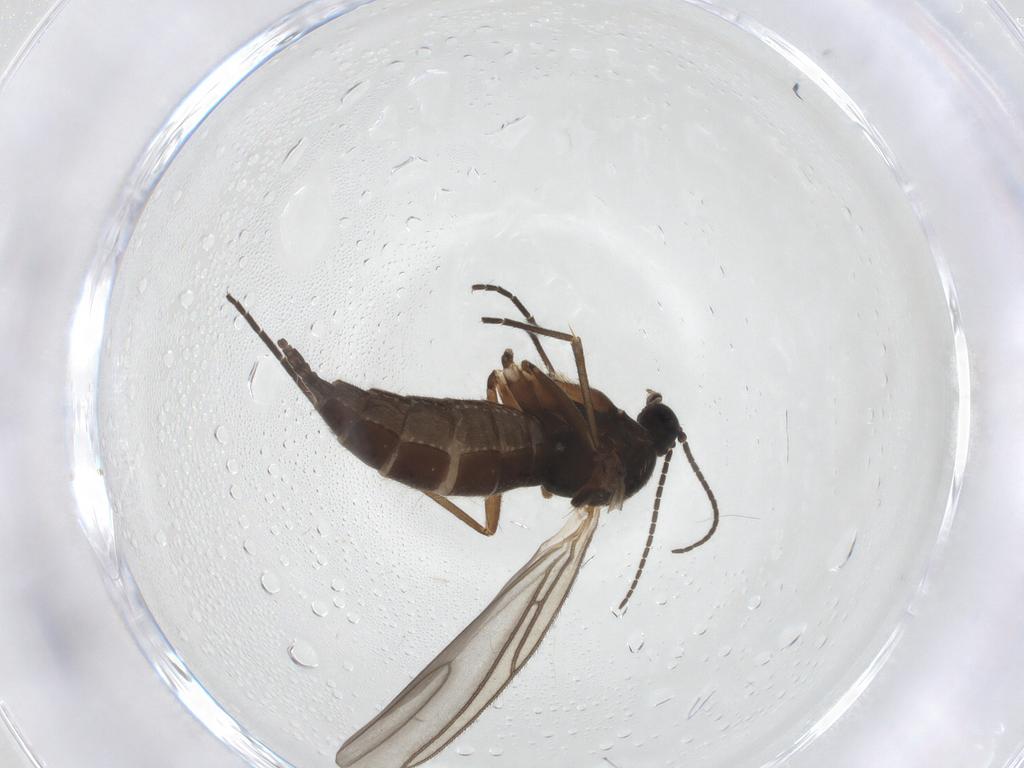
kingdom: Animalia
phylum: Arthropoda
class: Insecta
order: Diptera
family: Sciaridae
